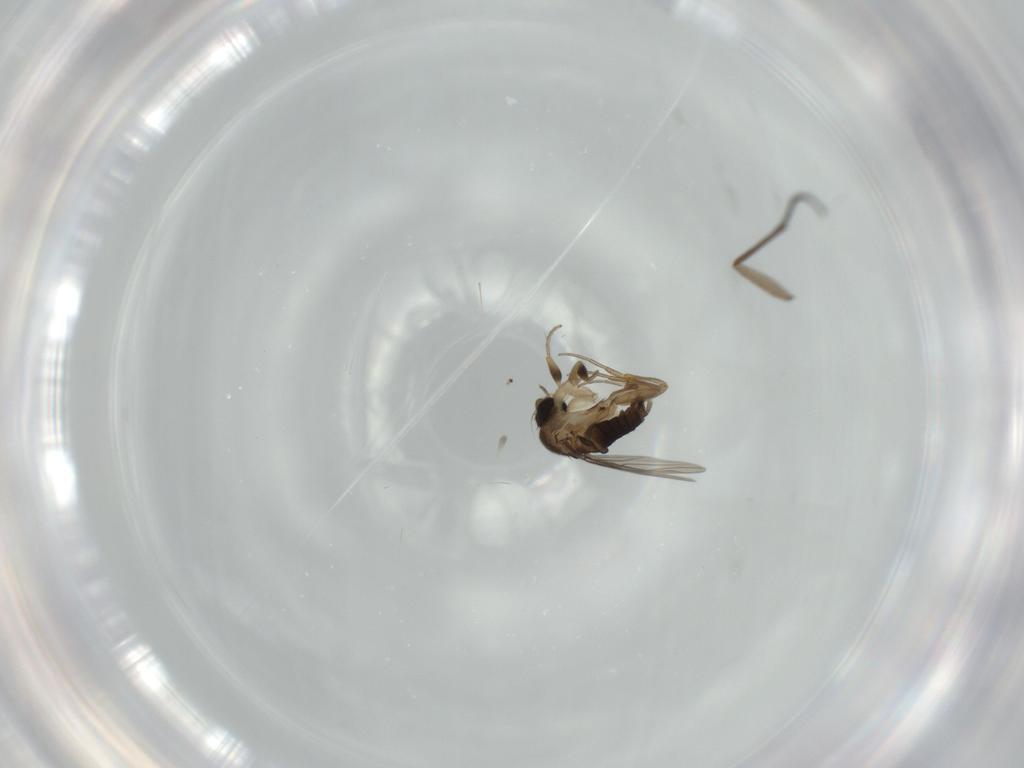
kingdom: Animalia
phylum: Arthropoda
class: Insecta
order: Diptera
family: Phoridae
